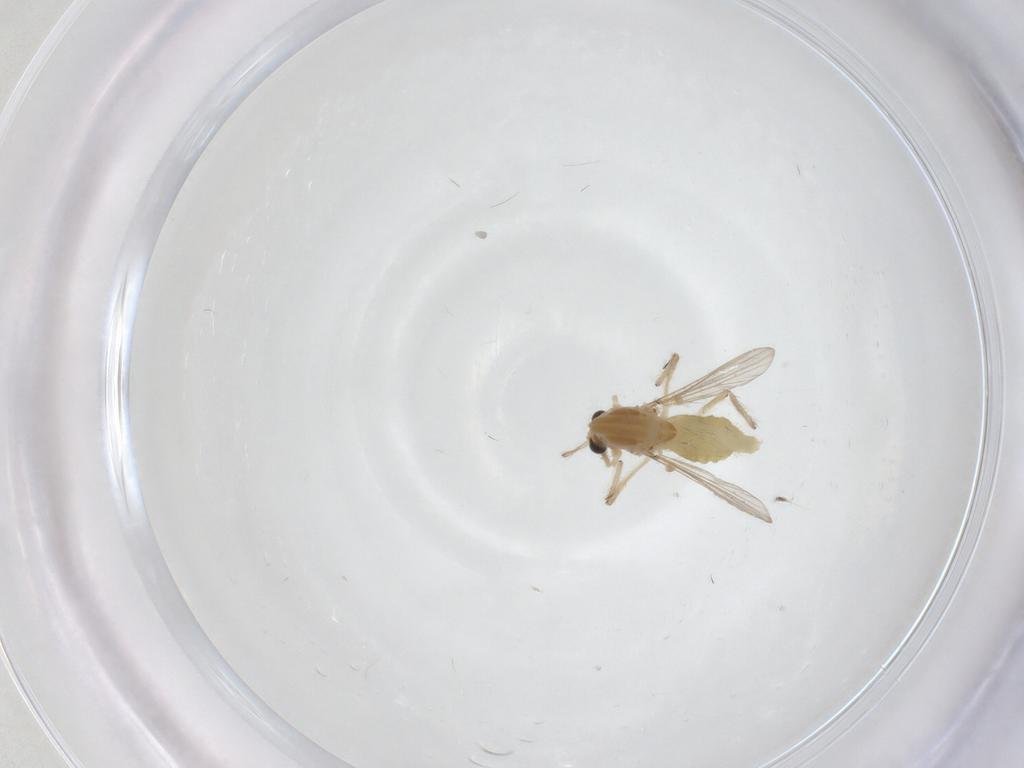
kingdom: Animalia
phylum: Arthropoda
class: Insecta
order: Diptera
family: Chironomidae
